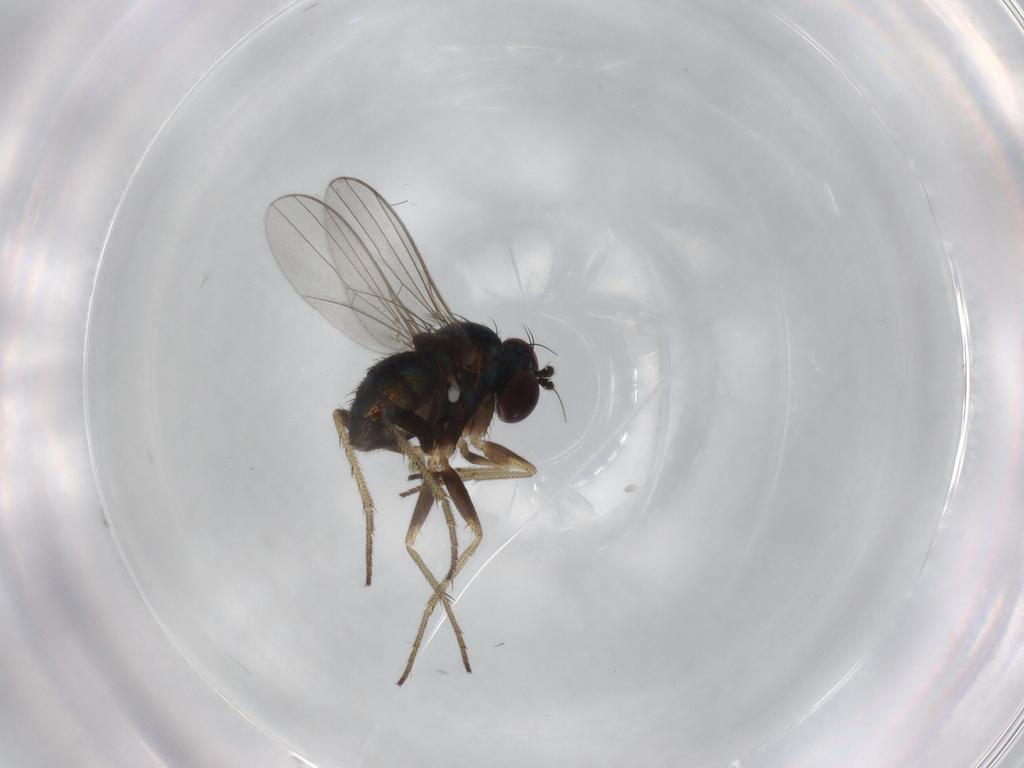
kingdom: Animalia
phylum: Arthropoda
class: Insecta
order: Diptera
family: Dolichopodidae
